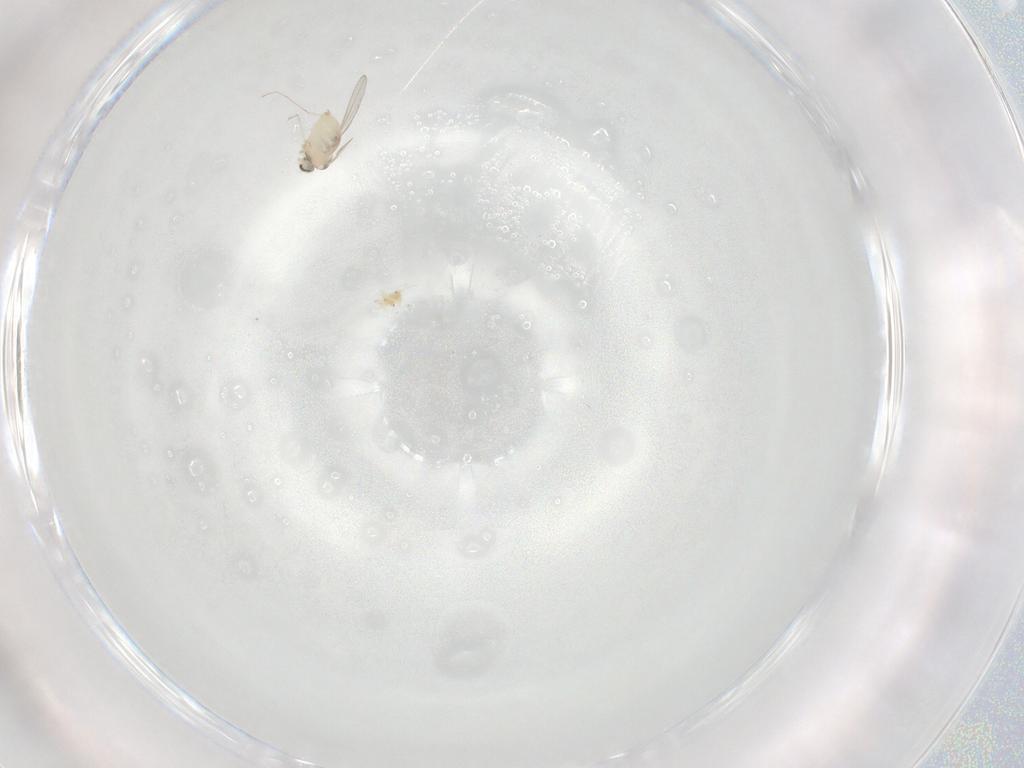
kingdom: Animalia
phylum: Arthropoda
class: Insecta
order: Diptera
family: Cecidomyiidae
